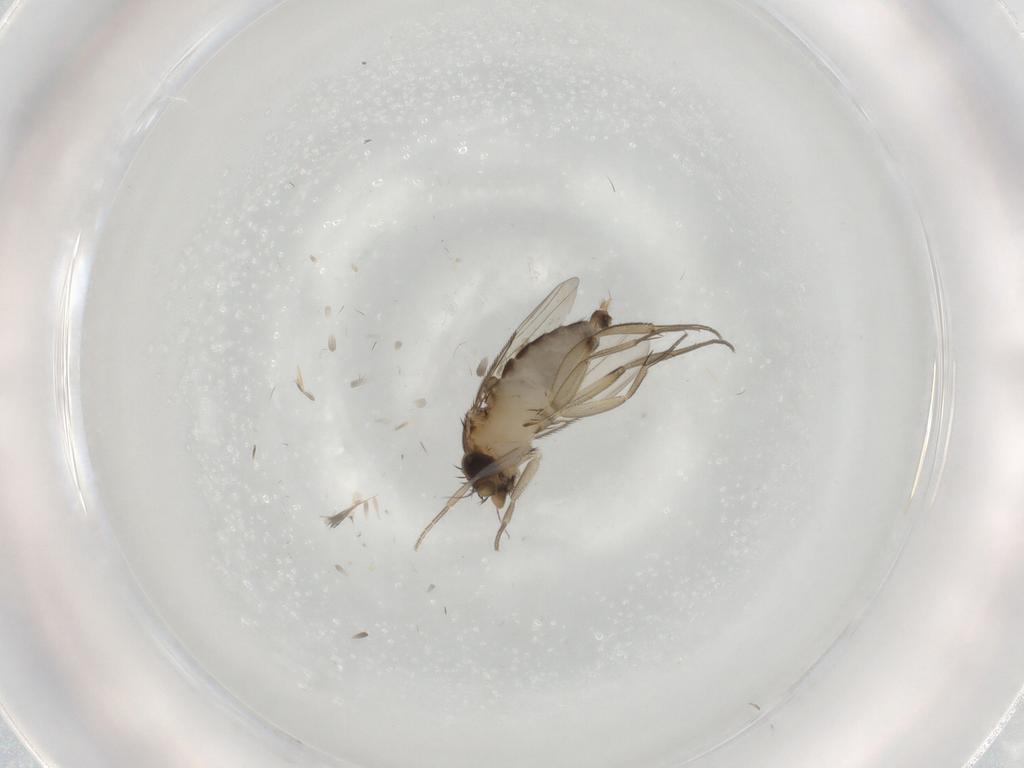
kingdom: Animalia
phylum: Arthropoda
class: Insecta
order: Diptera
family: Phoridae
